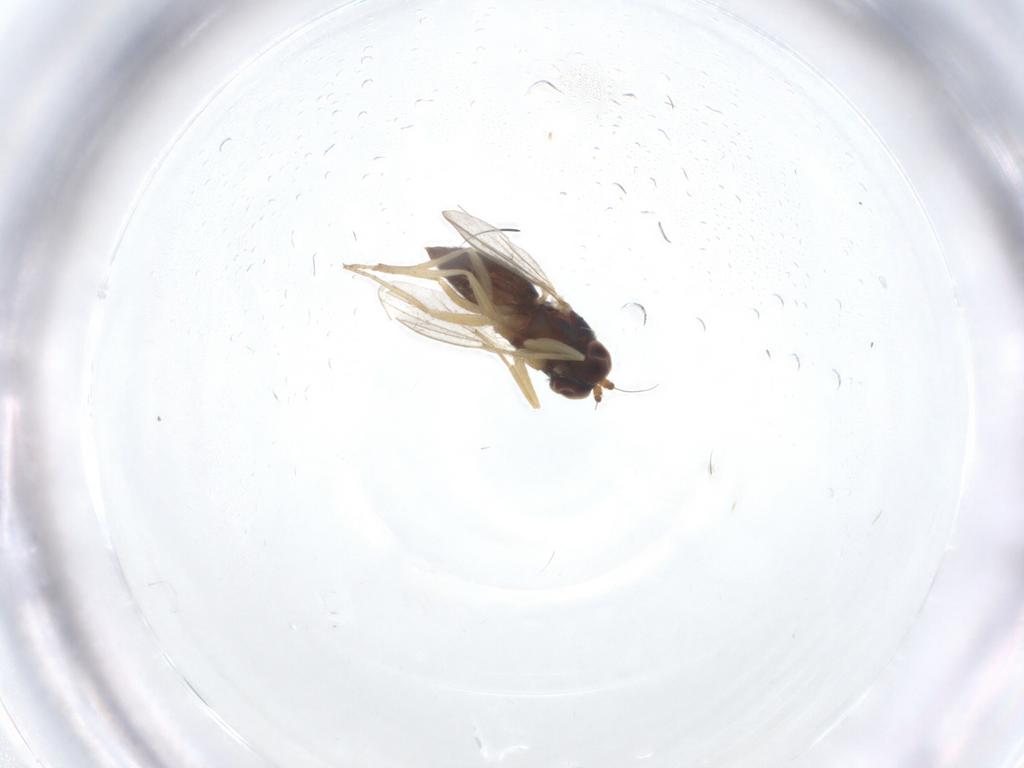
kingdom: Animalia
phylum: Arthropoda
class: Insecta
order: Diptera
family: Dolichopodidae
